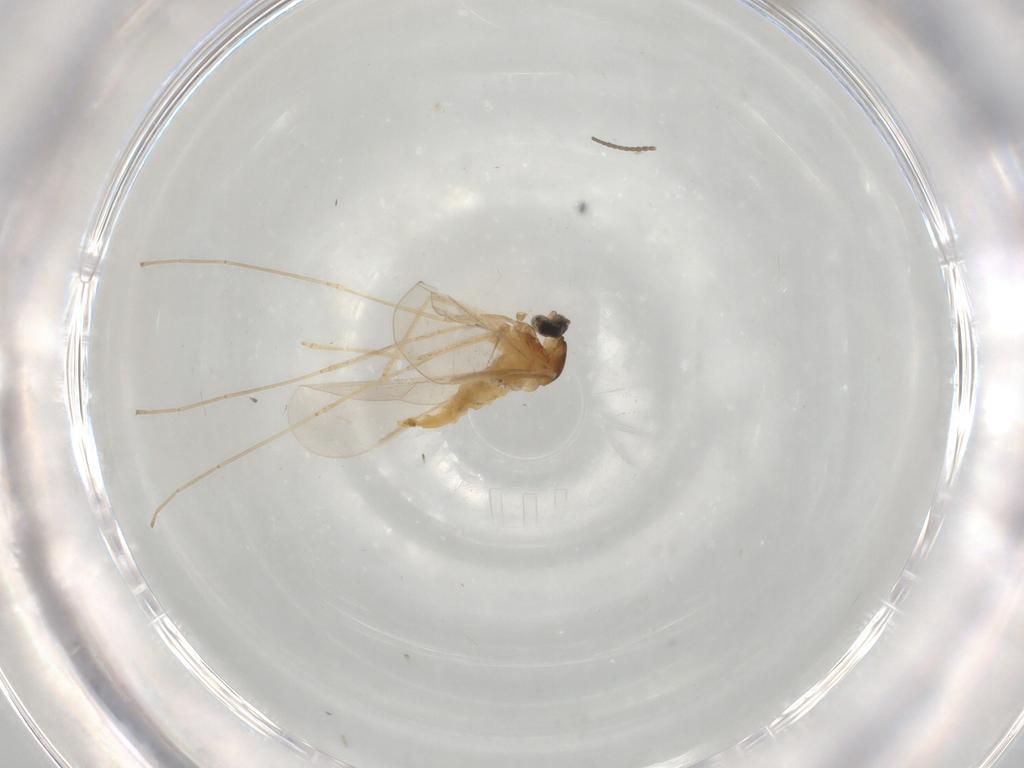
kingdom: Animalia
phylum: Arthropoda
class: Insecta
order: Diptera
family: Cecidomyiidae
